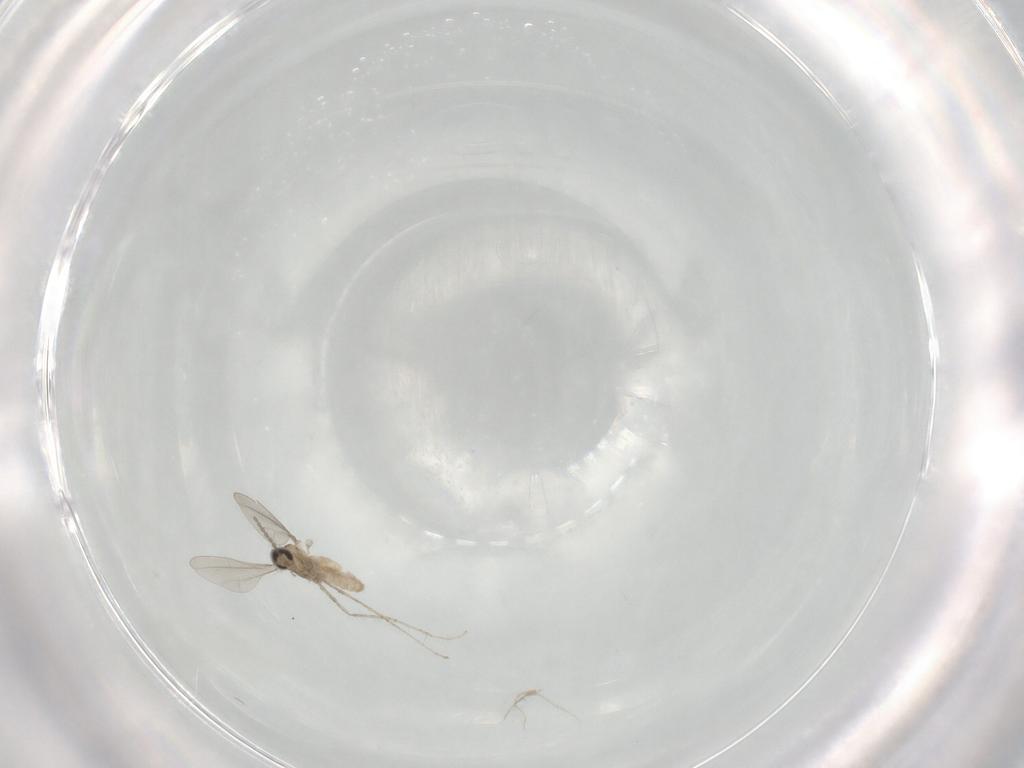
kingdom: Animalia
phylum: Arthropoda
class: Insecta
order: Diptera
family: Cecidomyiidae
